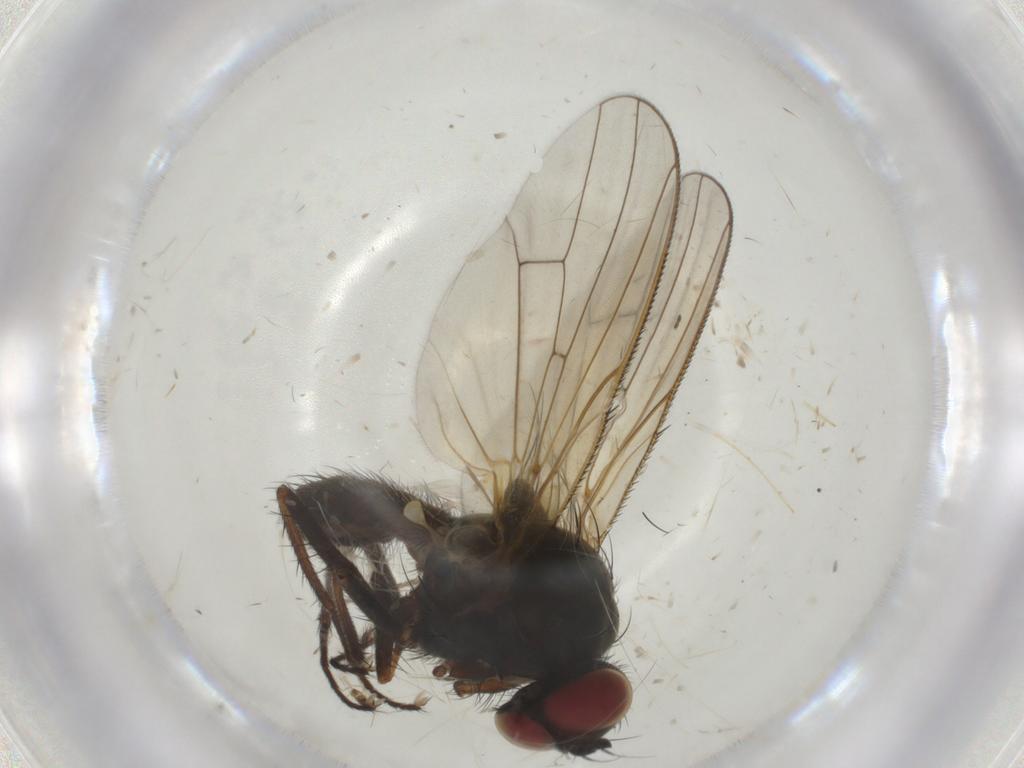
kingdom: Animalia
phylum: Arthropoda
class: Insecta
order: Diptera
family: Anthomyiidae
